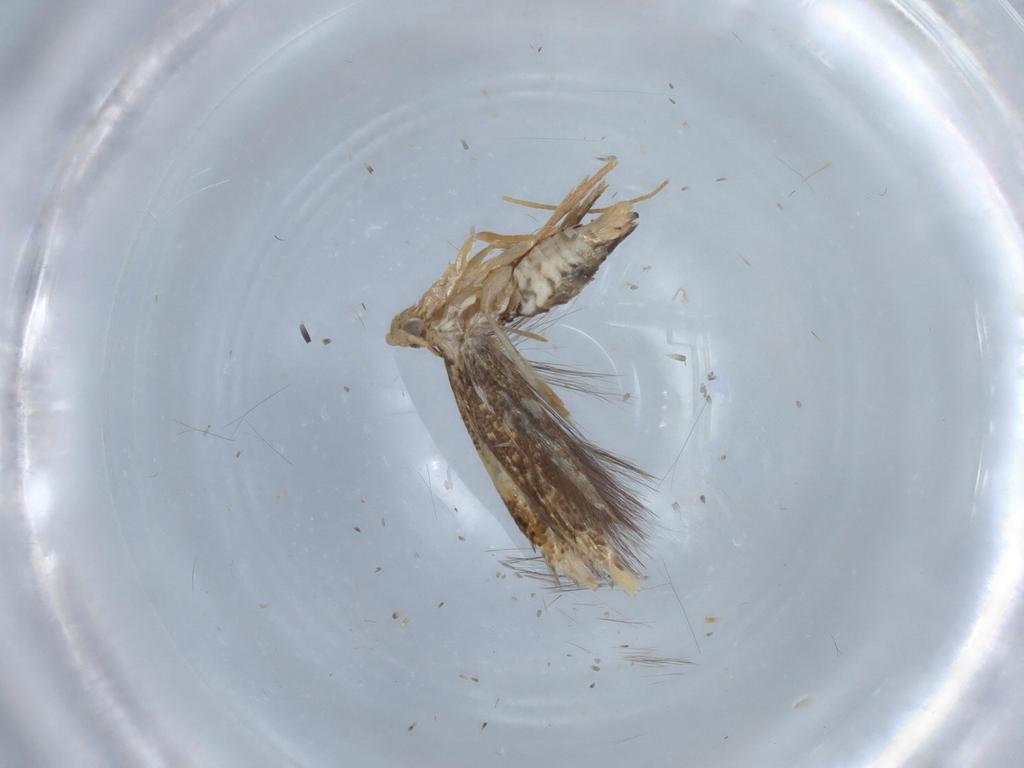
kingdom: Animalia
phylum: Arthropoda
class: Insecta
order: Lepidoptera
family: Tineidae
